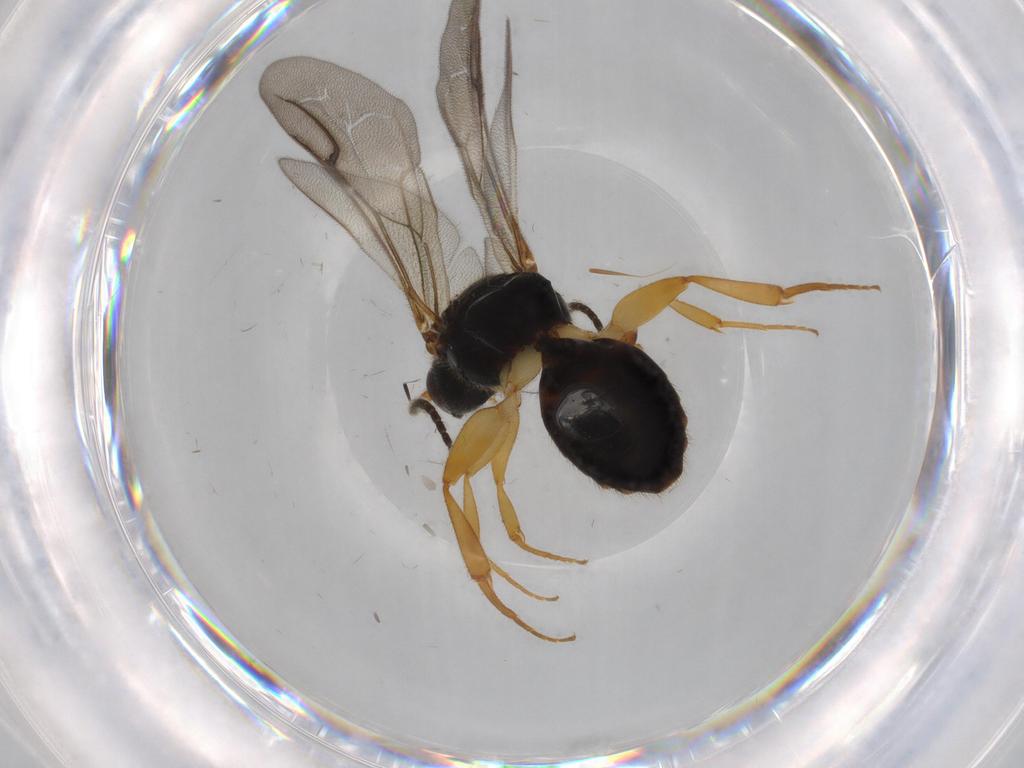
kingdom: Animalia
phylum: Arthropoda
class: Insecta
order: Hymenoptera
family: Bethylidae
